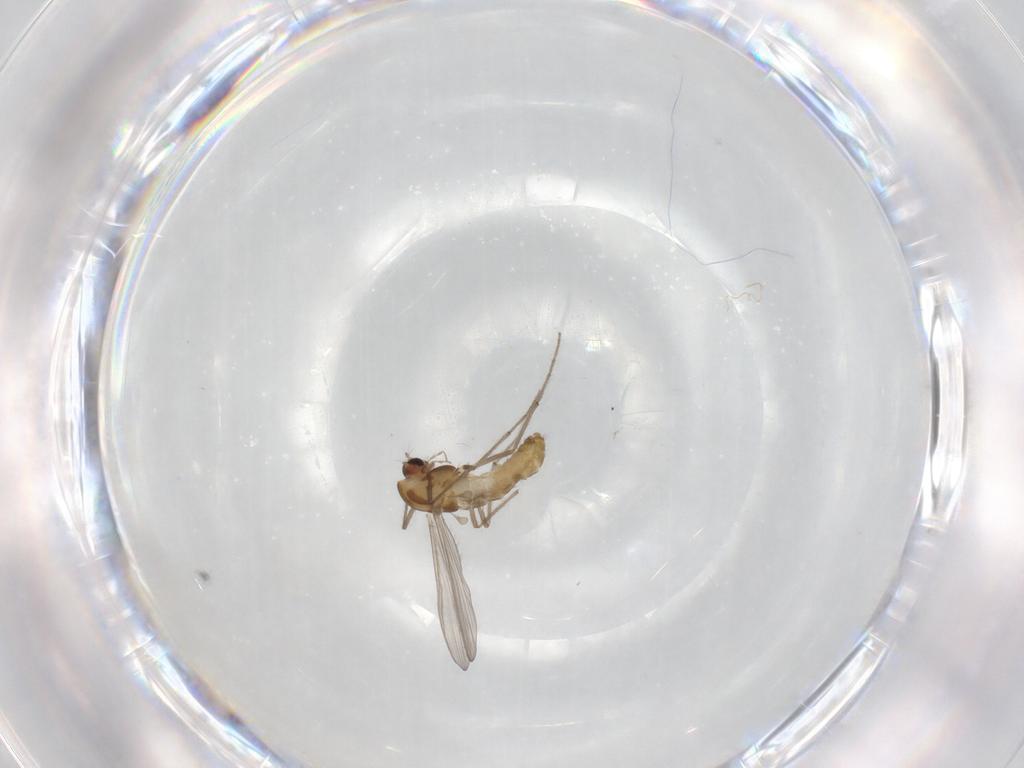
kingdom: Animalia
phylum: Arthropoda
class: Insecta
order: Diptera
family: Chironomidae
